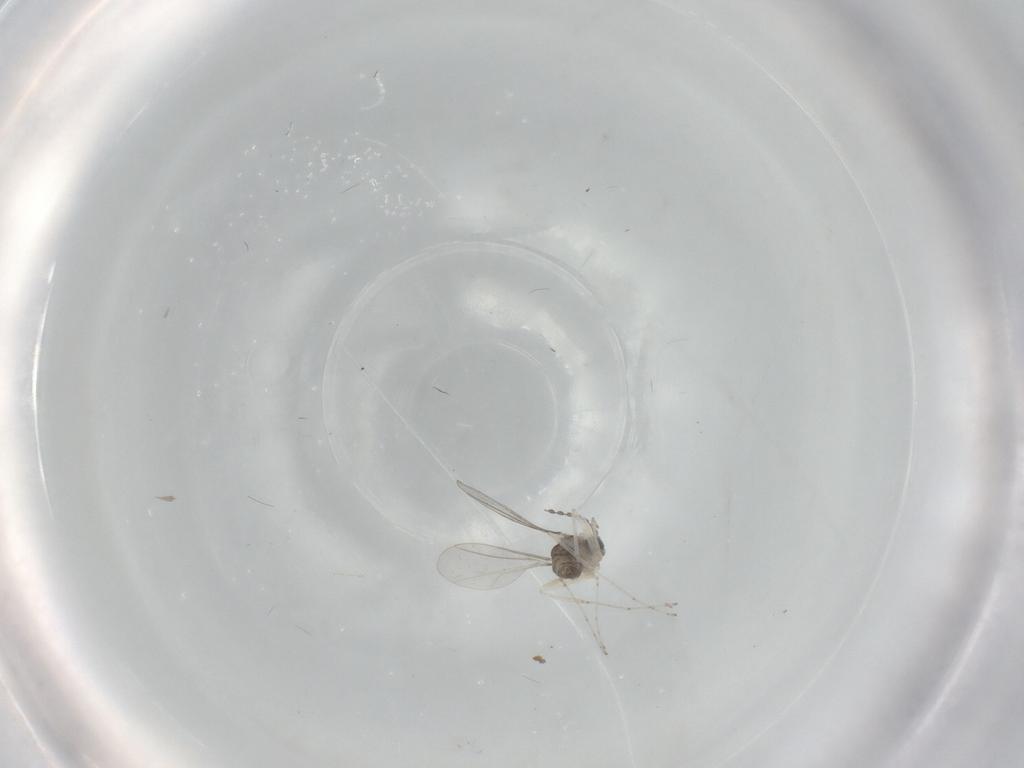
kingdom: Animalia
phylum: Arthropoda
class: Insecta
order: Diptera
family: Cecidomyiidae
